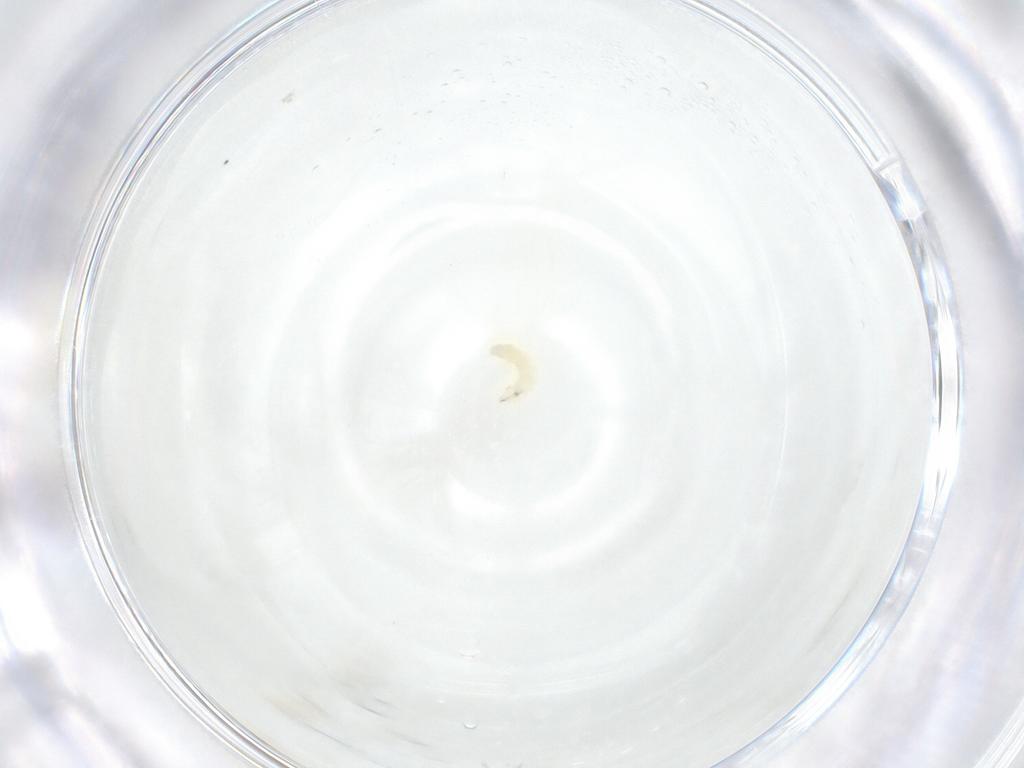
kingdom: Animalia
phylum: Arthropoda
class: Insecta
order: Diptera
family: Sarcophagidae
